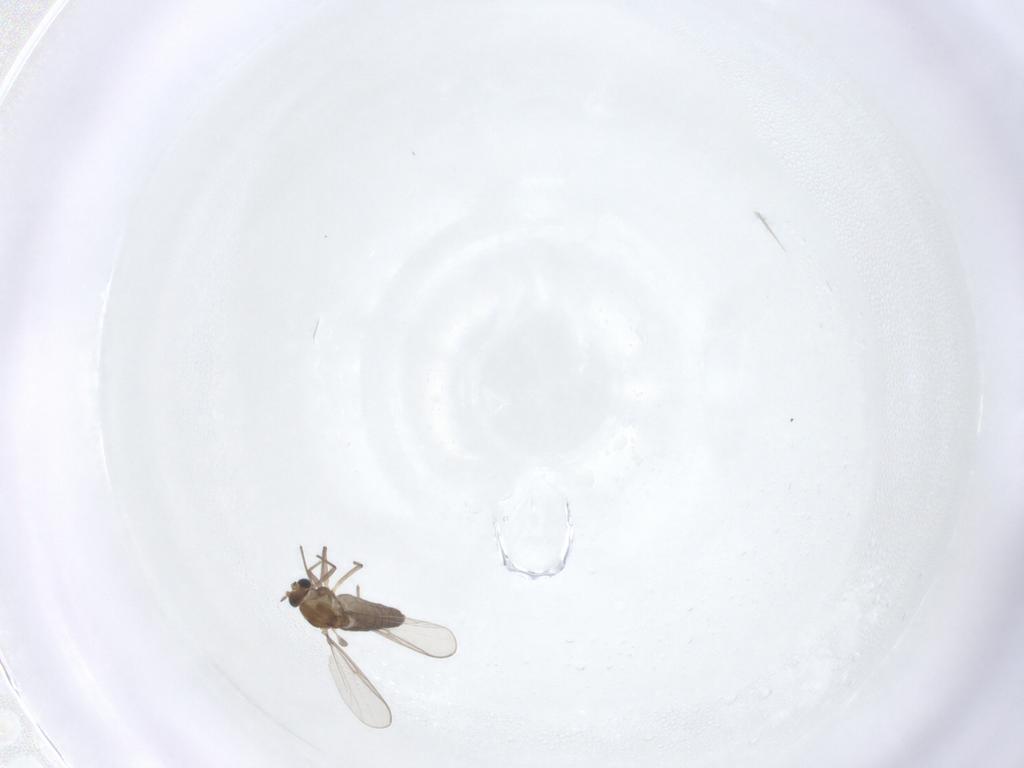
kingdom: Animalia
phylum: Arthropoda
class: Insecta
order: Diptera
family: Chironomidae
